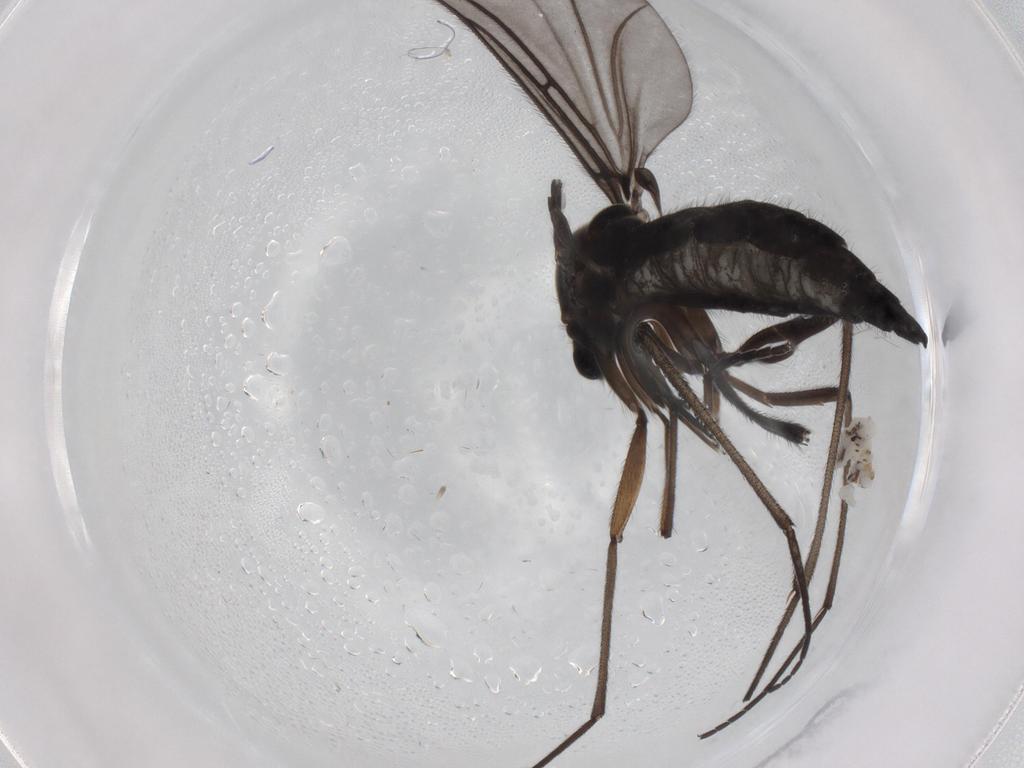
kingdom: Animalia
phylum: Arthropoda
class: Insecta
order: Diptera
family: Sciaridae
